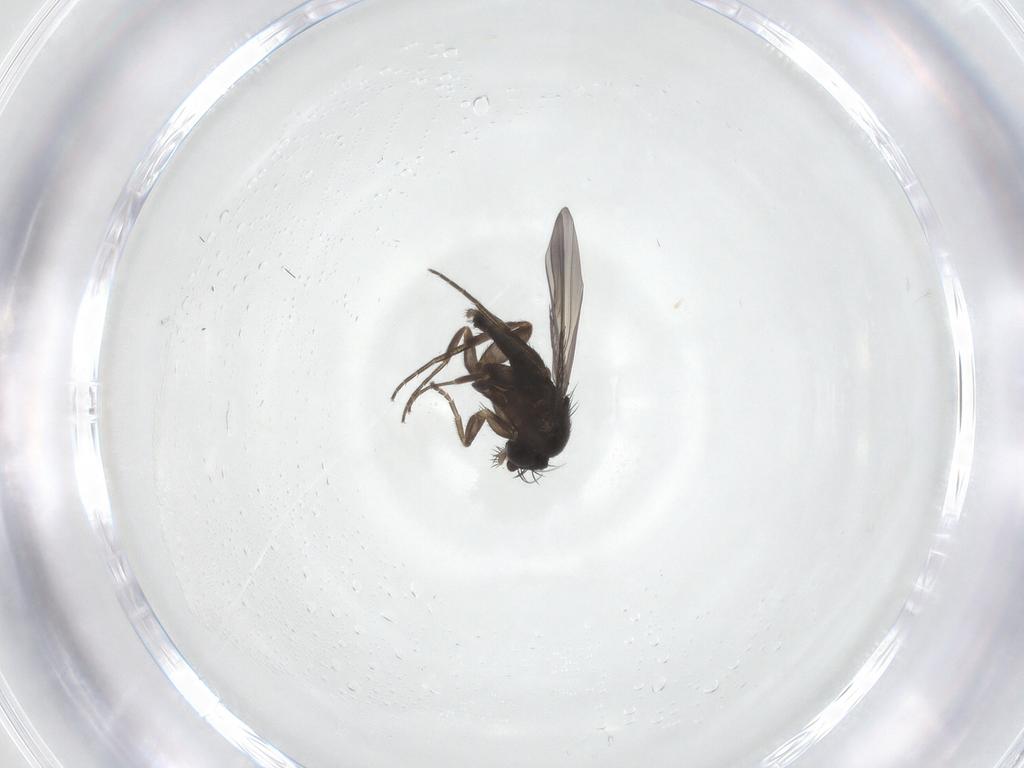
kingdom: Animalia
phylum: Arthropoda
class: Insecta
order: Diptera
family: Phoridae
